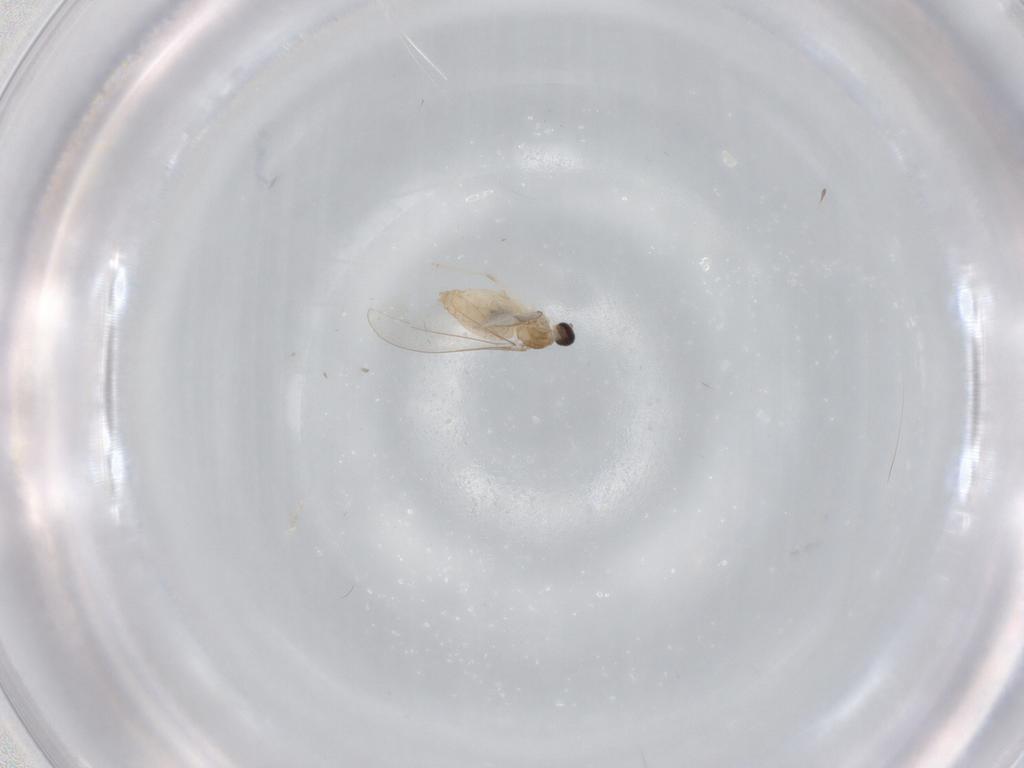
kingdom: Animalia
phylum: Arthropoda
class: Insecta
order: Diptera
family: Cecidomyiidae
